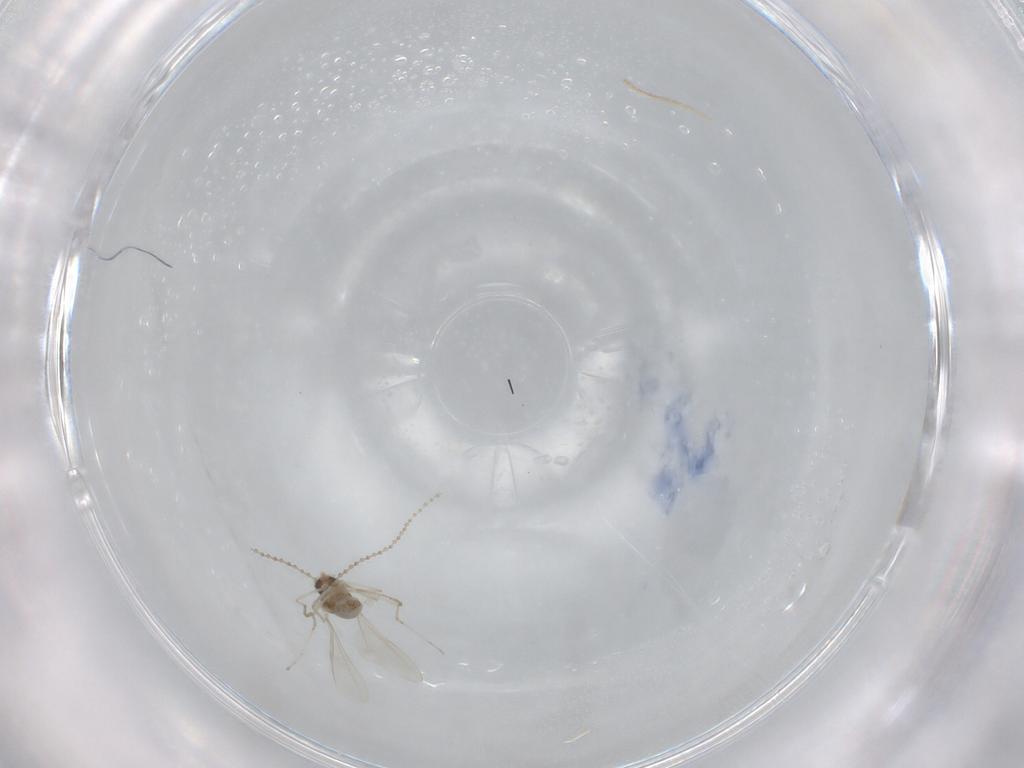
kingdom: Animalia
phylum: Arthropoda
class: Insecta
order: Diptera
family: Cecidomyiidae
